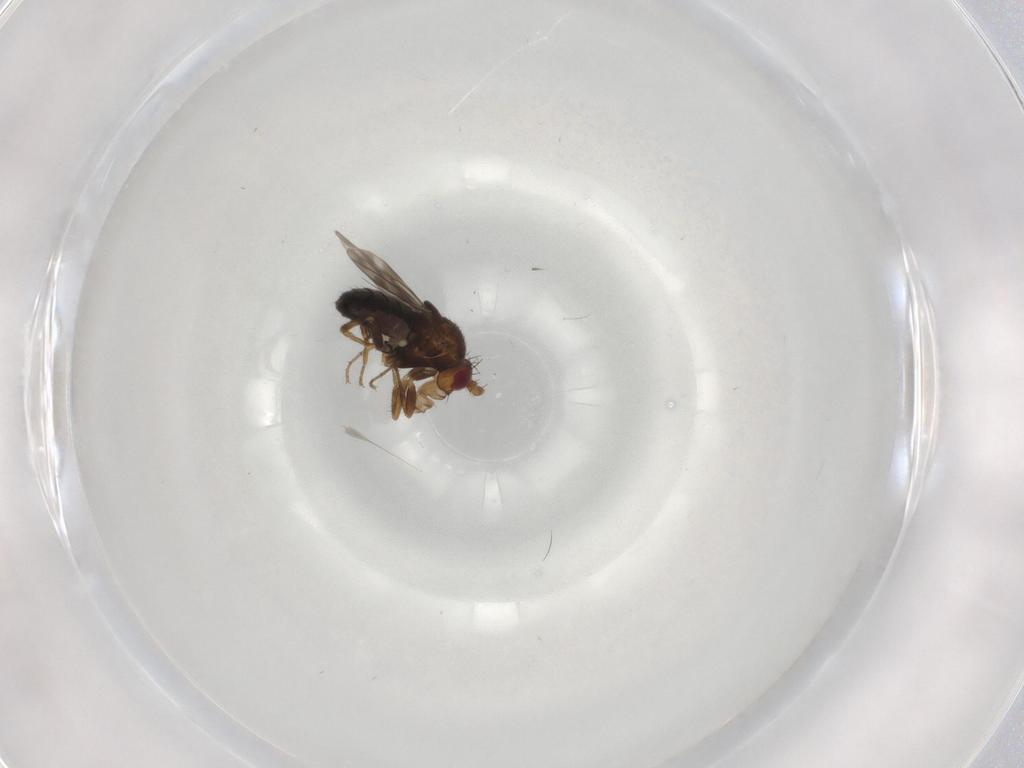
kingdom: Animalia
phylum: Arthropoda
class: Insecta
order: Diptera
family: Sphaeroceridae
